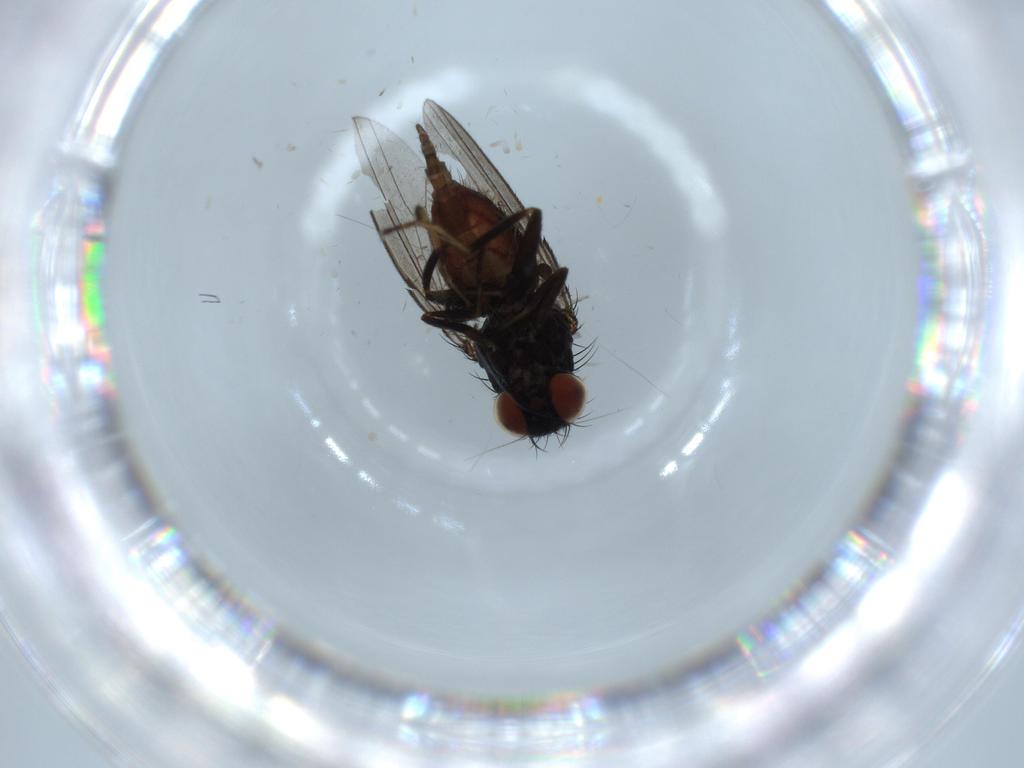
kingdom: Animalia
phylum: Arthropoda
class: Insecta
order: Diptera
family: Milichiidae
